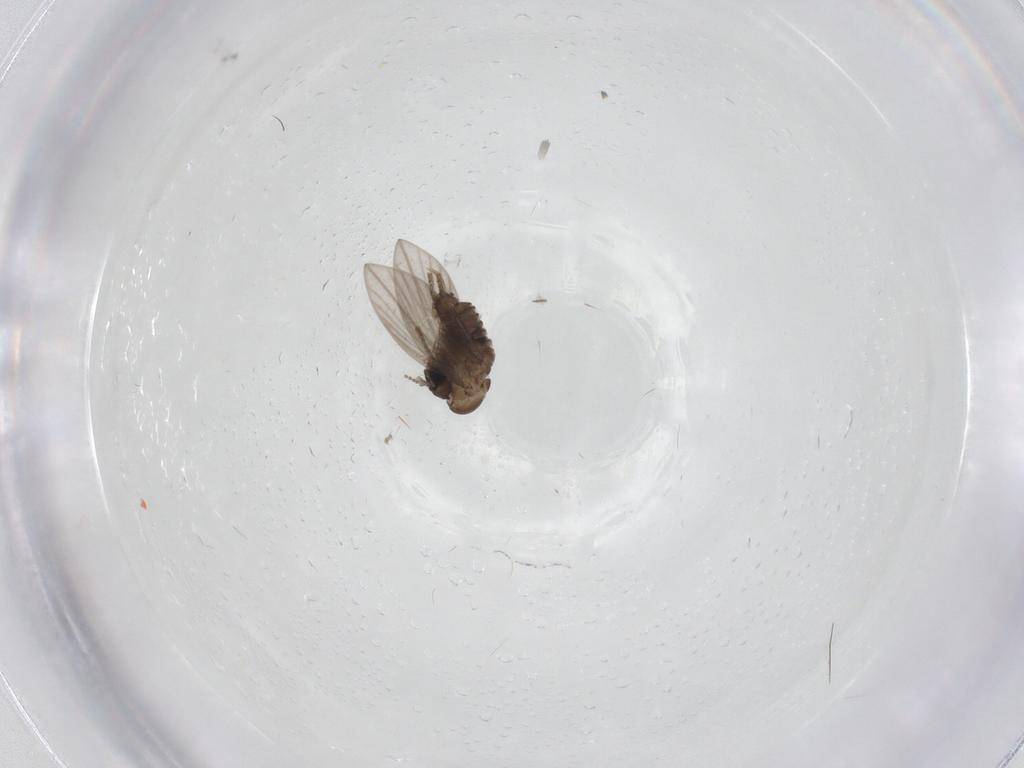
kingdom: Animalia
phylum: Arthropoda
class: Insecta
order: Diptera
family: Psychodidae
